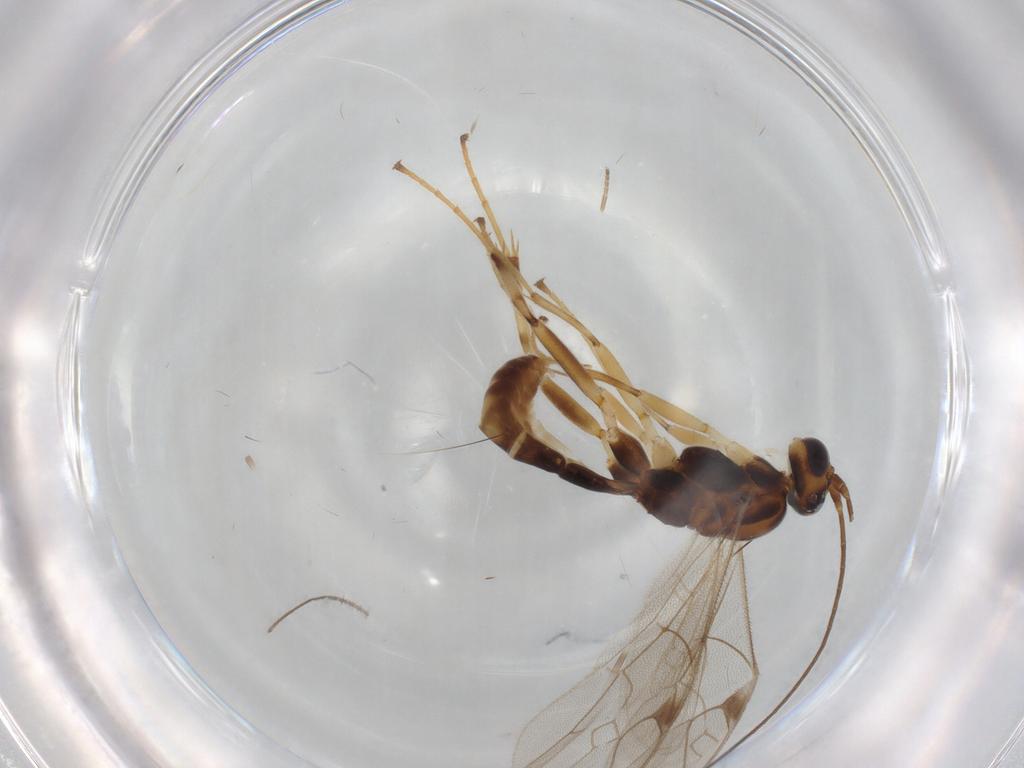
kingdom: Animalia
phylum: Arthropoda
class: Insecta
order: Hymenoptera
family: Ichneumonidae
